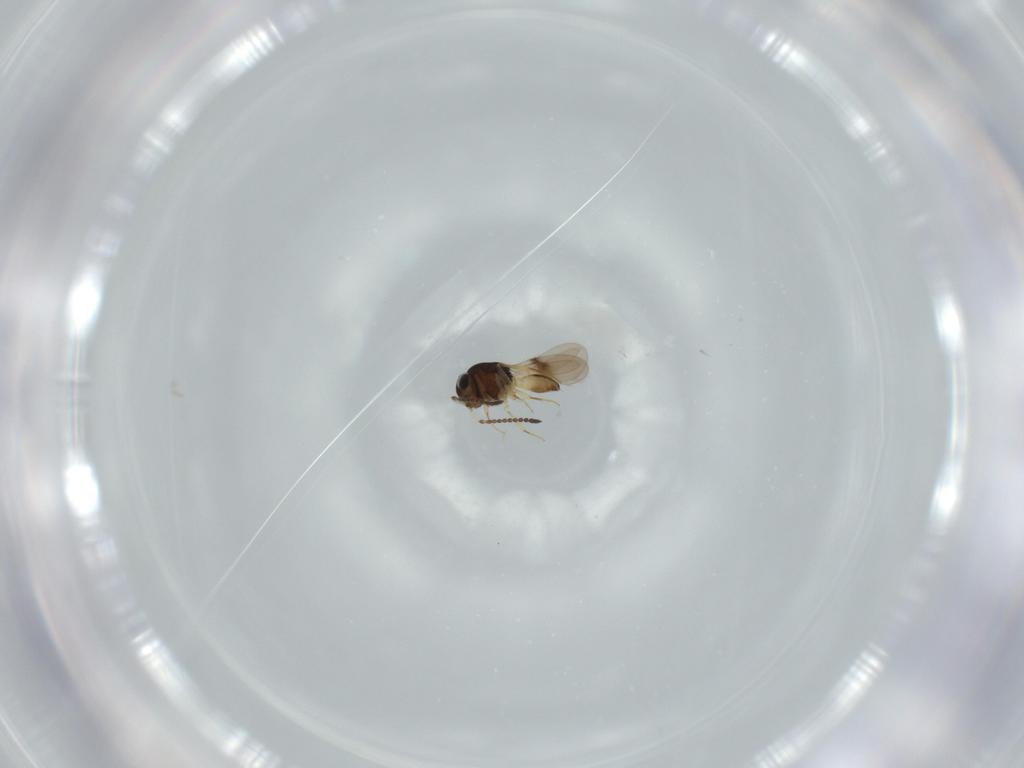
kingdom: Animalia
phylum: Arthropoda
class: Insecta
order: Hymenoptera
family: Scelionidae
